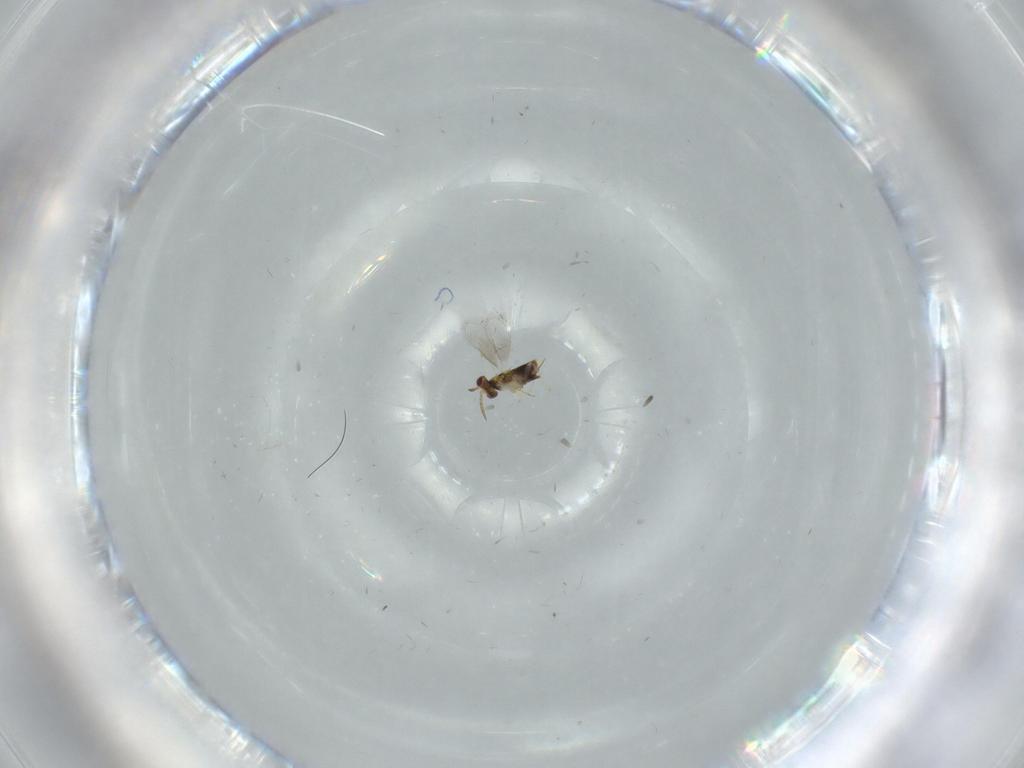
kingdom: Animalia
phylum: Arthropoda
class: Insecta
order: Hymenoptera
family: Aphelinidae
